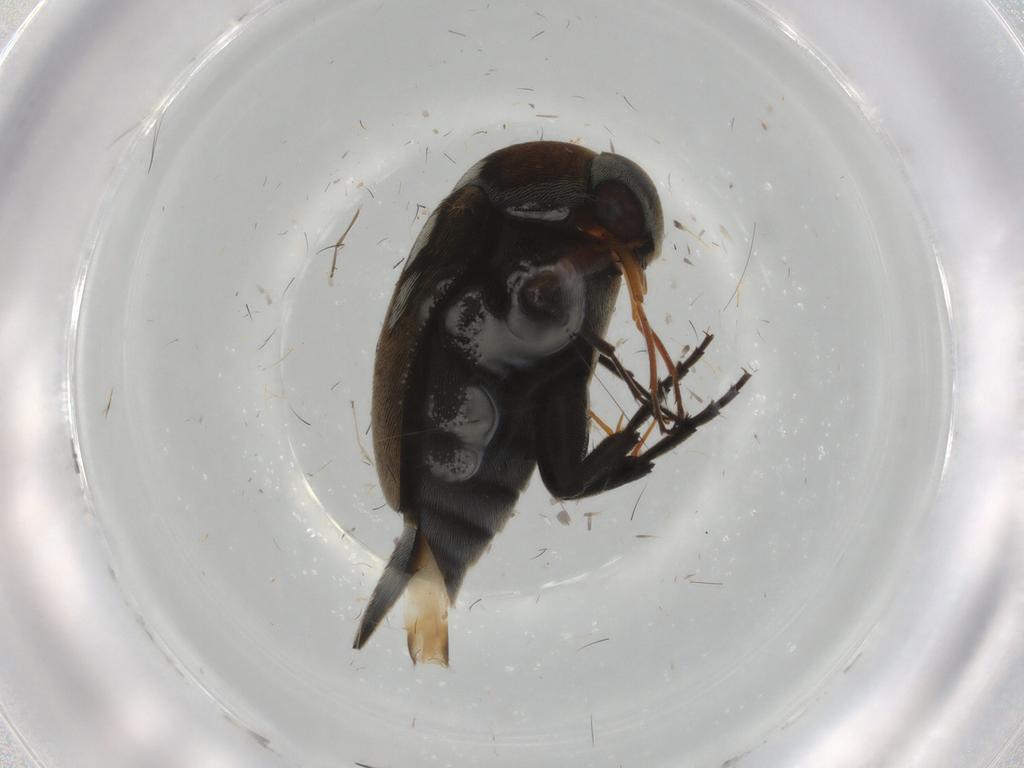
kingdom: Animalia
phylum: Arthropoda
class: Insecta
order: Coleoptera
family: Mordellidae
